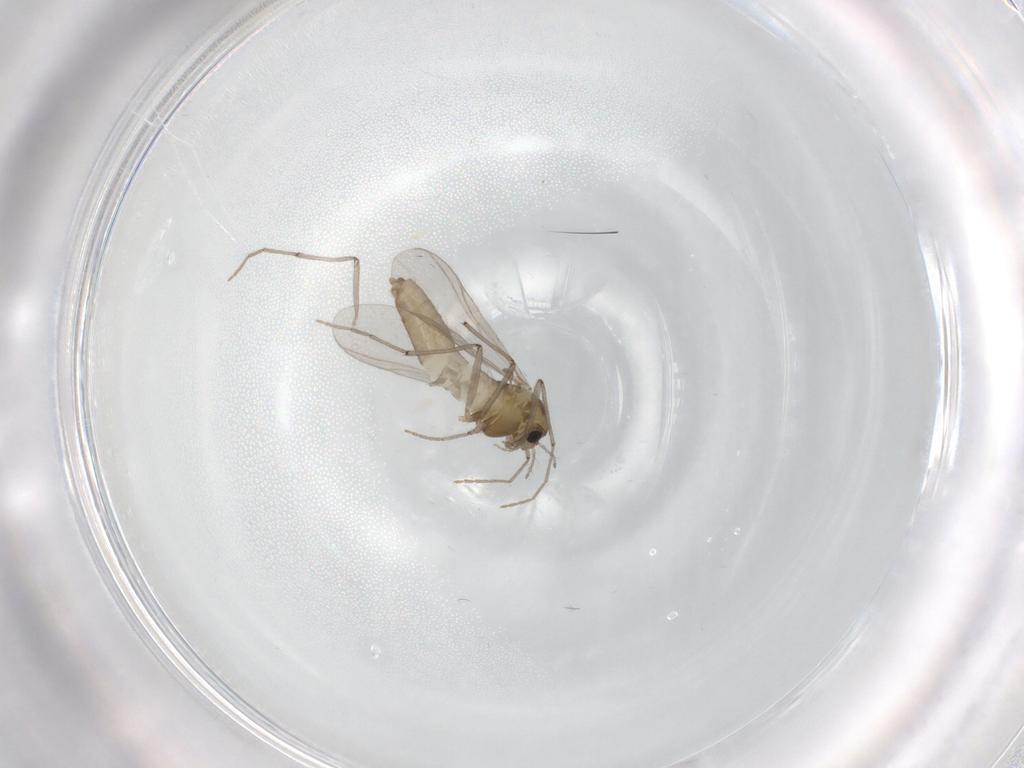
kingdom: Animalia
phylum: Arthropoda
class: Insecta
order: Diptera
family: Chironomidae
